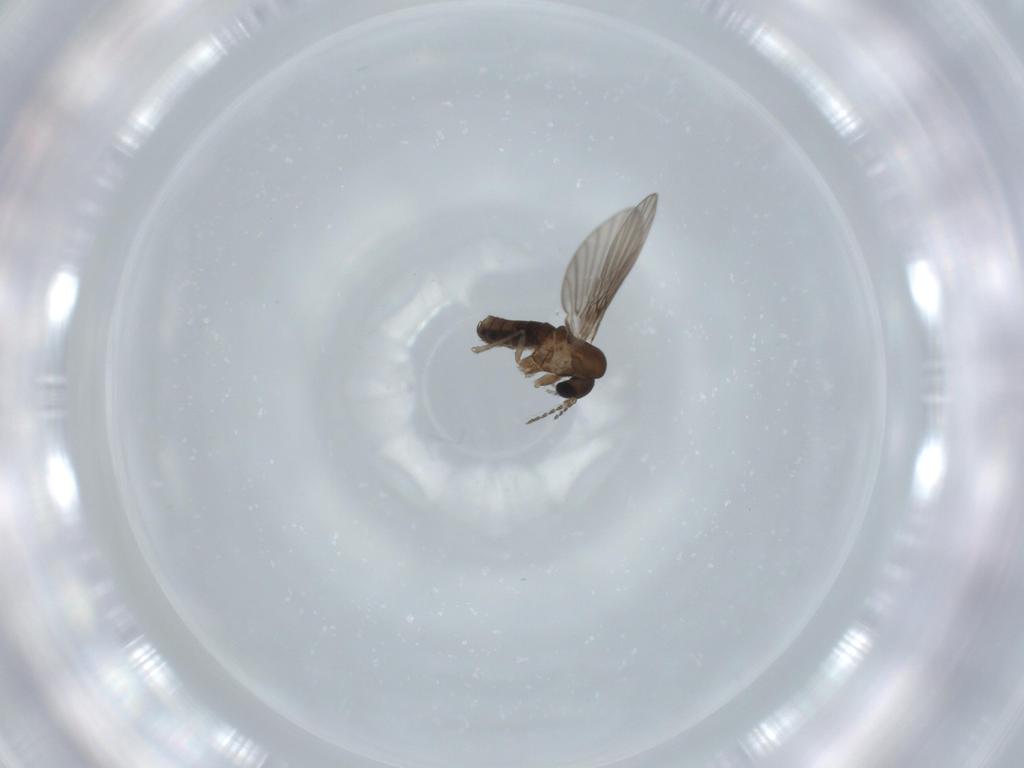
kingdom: Animalia
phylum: Arthropoda
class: Insecta
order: Diptera
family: Psychodidae
